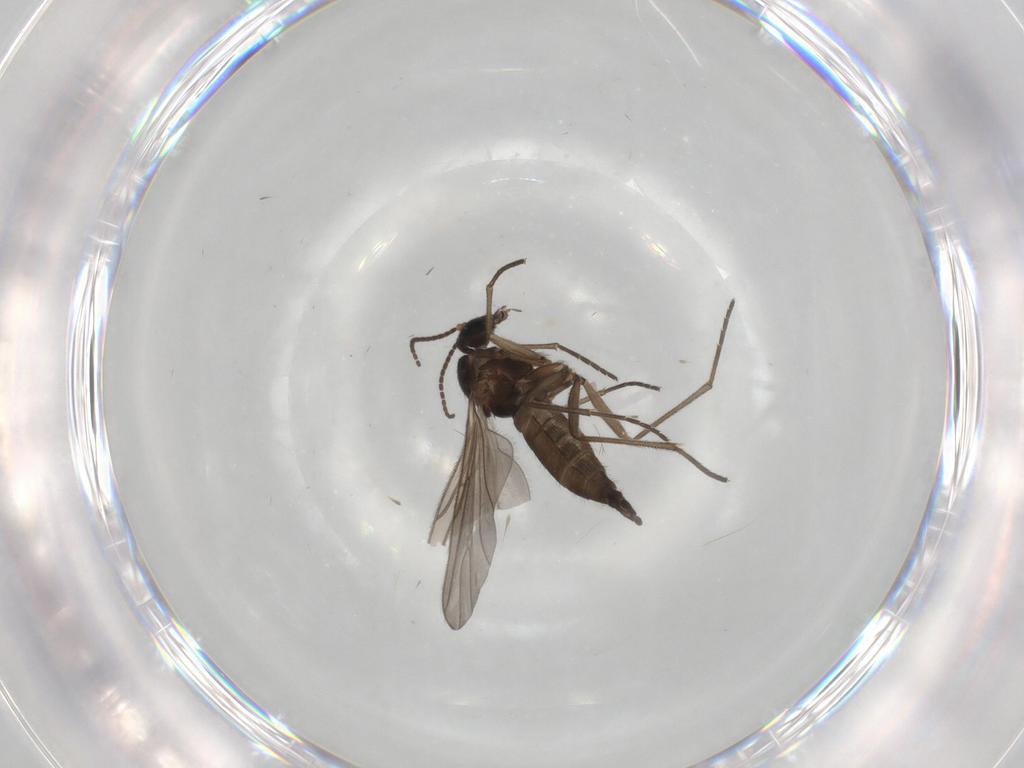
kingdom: Animalia
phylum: Arthropoda
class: Insecta
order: Diptera
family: Sciaridae
